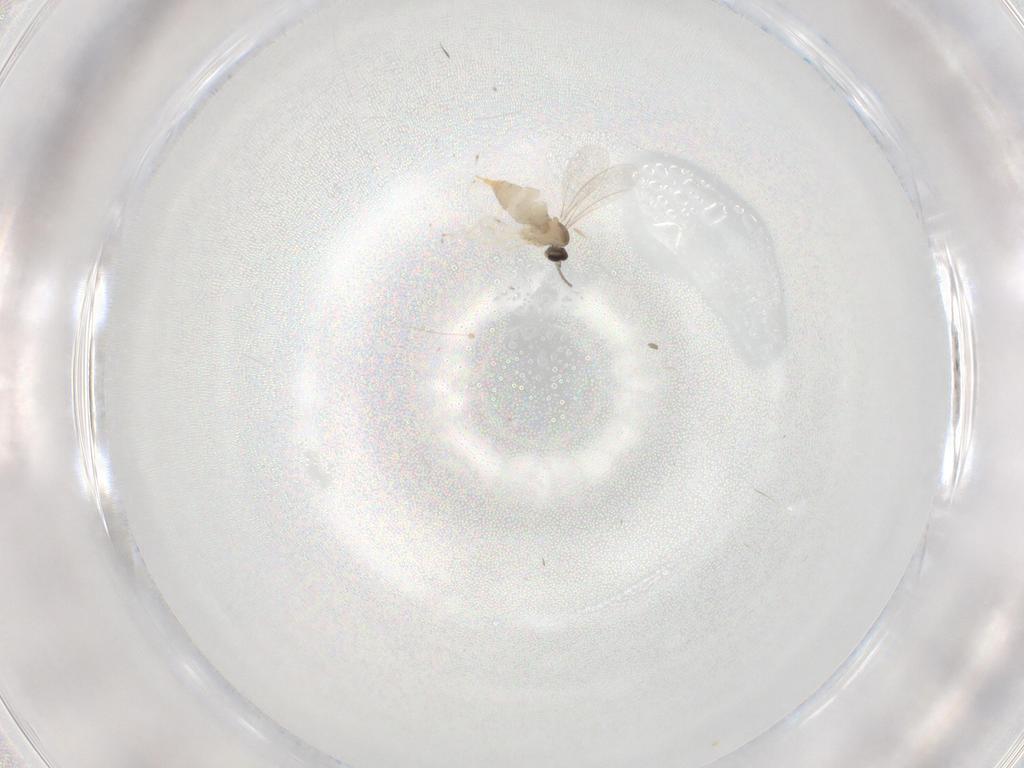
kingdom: Animalia
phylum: Arthropoda
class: Insecta
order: Diptera
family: Cecidomyiidae
